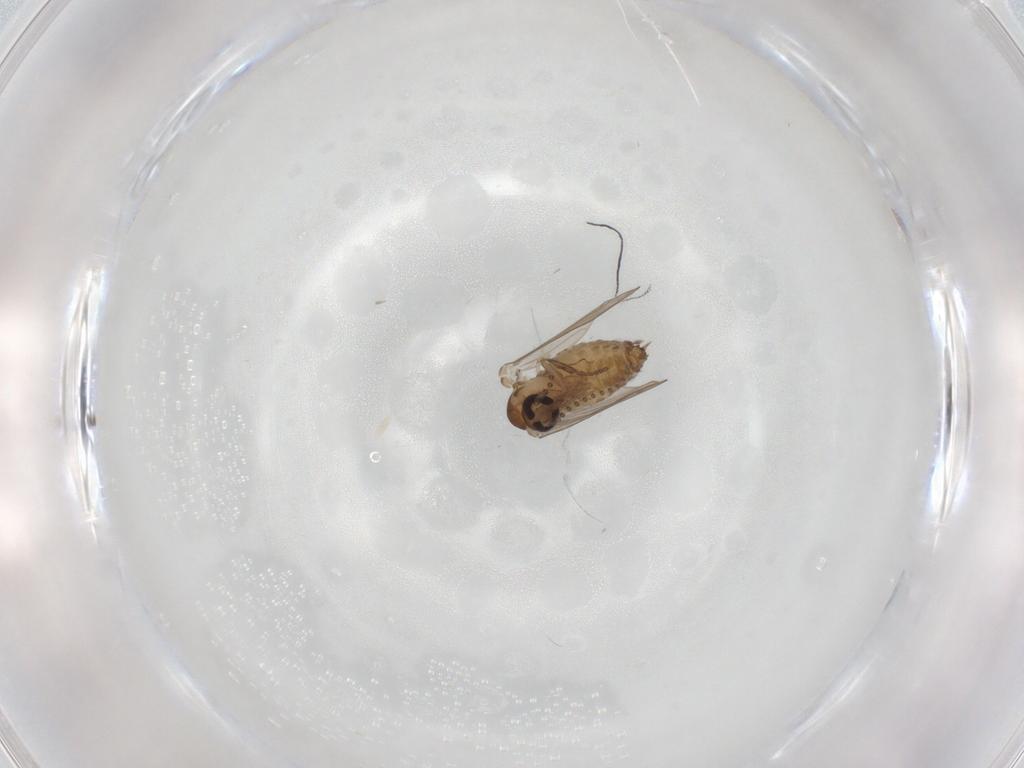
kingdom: Animalia
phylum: Arthropoda
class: Insecta
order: Diptera
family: Psychodidae
